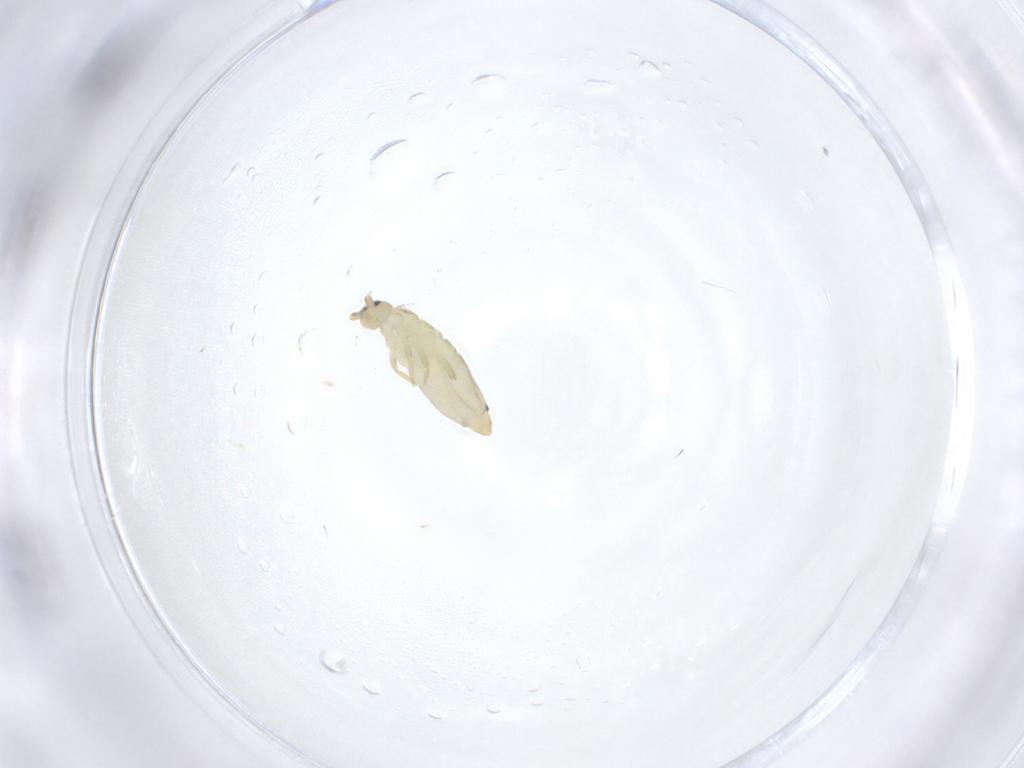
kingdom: Animalia
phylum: Arthropoda
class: Collembola
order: Entomobryomorpha
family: Entomobryidae
